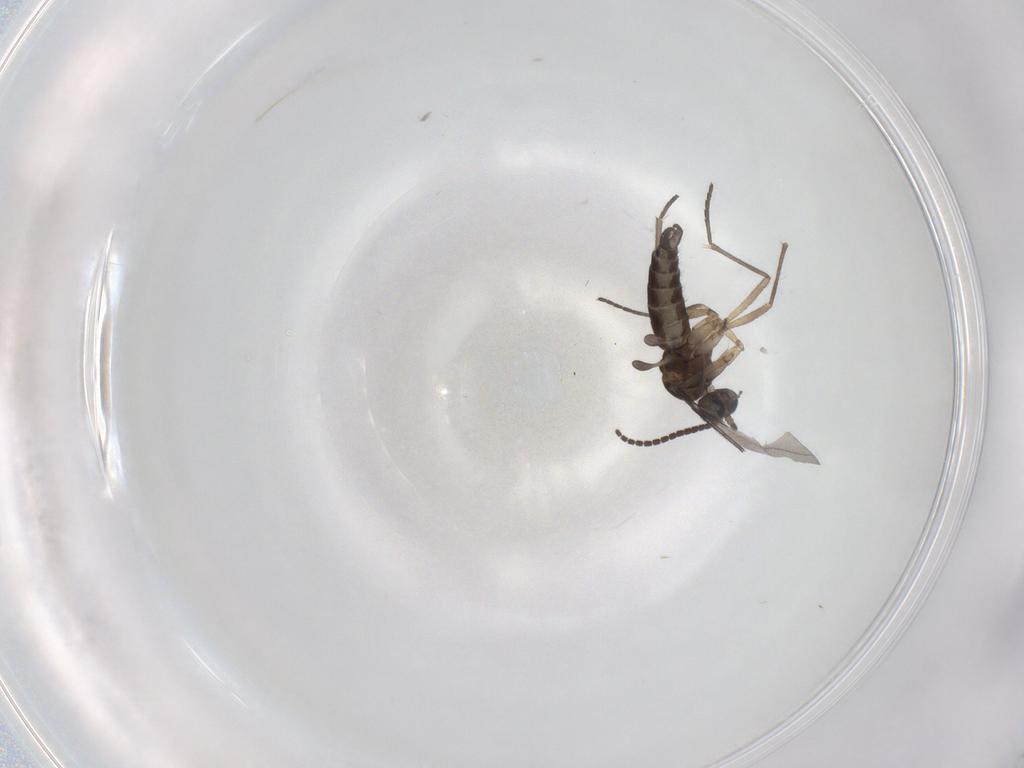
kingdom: Animalia
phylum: Arthropoda
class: Insecta
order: Diptera
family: Sciaridae
